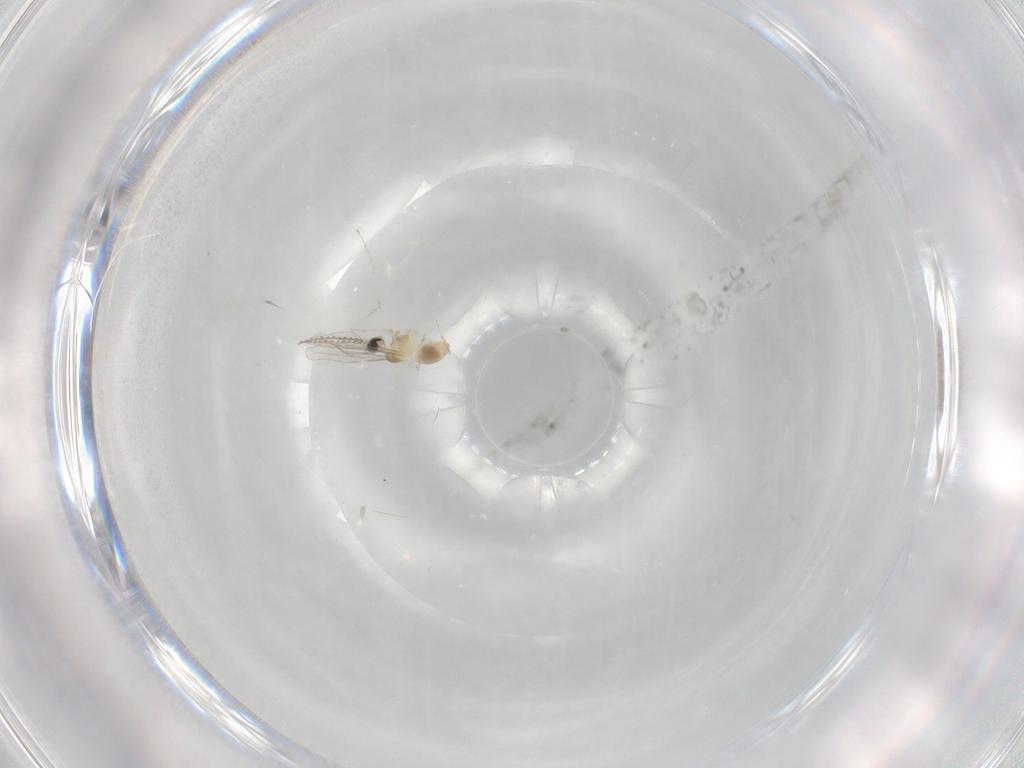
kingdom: Animalia
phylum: Arthropoda
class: Insecta
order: Diptera
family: Cecidomyiidae
